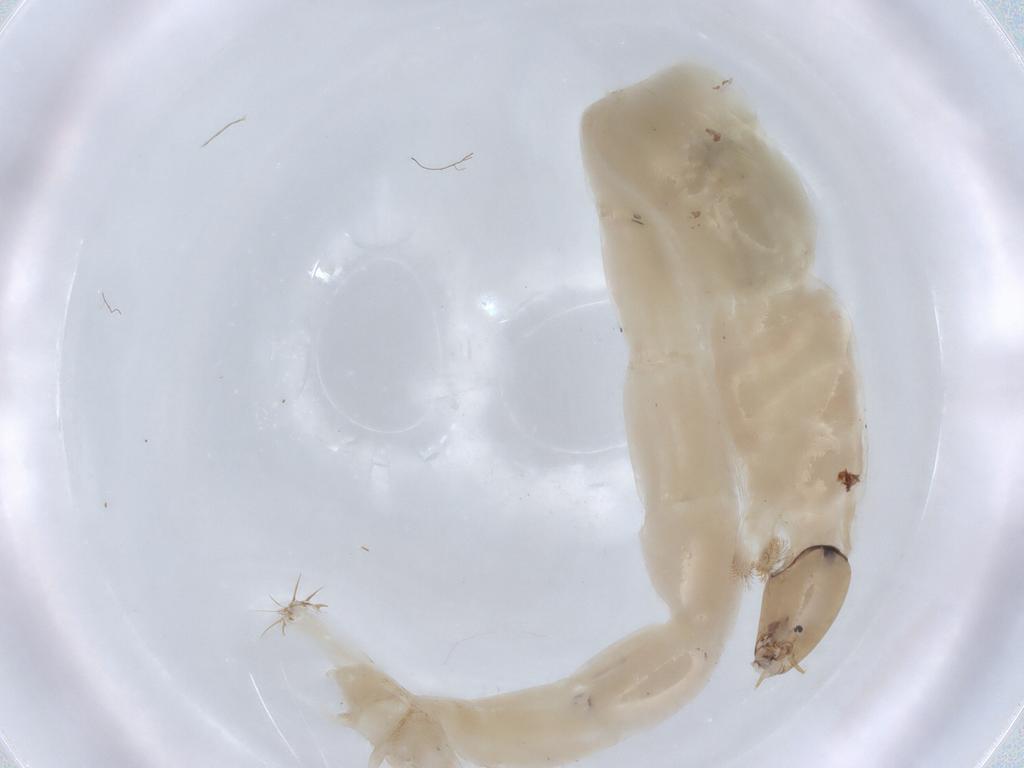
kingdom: Animalia
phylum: Arthropoda
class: Insecta
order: Diptera
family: Chironomidae
